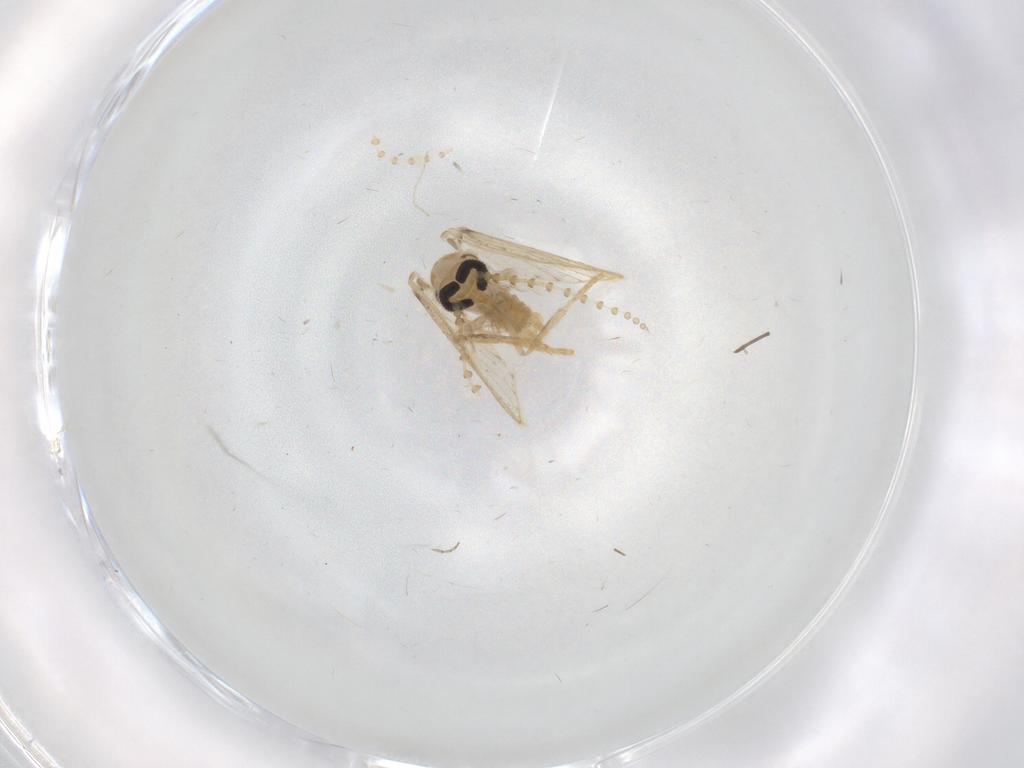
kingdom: Animalia
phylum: Arthropoda
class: Insecta
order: Diptera
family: Psychodidae
